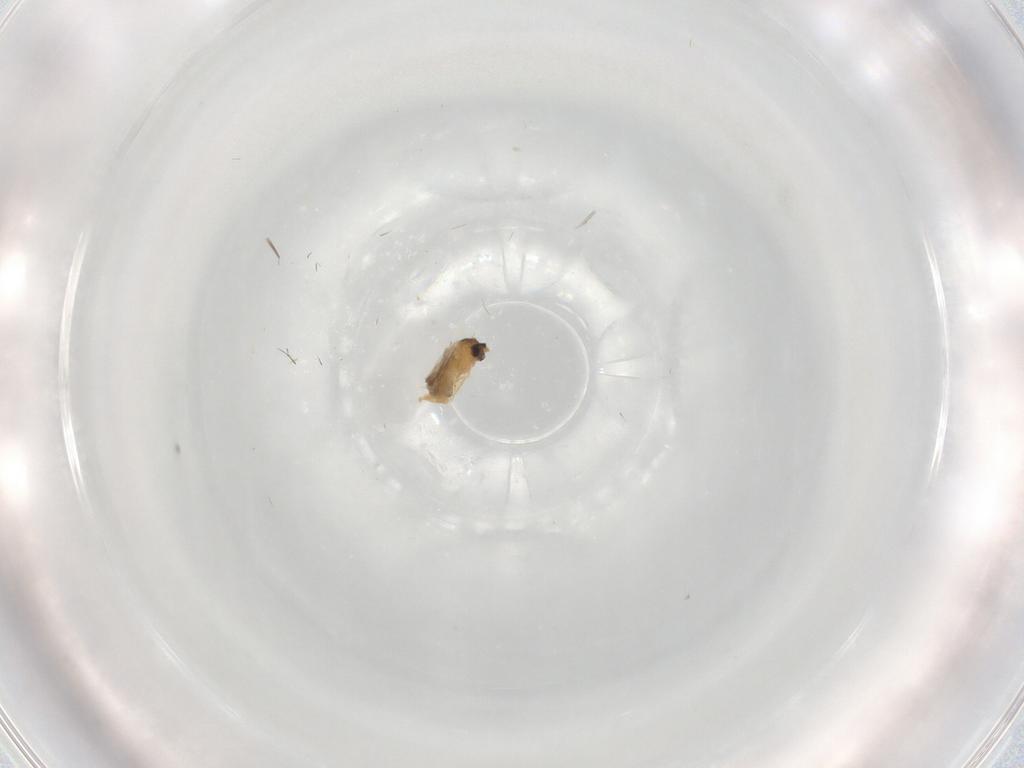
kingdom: Animalia
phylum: Arthropoda
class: Insecta
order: Diptera
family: Cecidomyiidae
